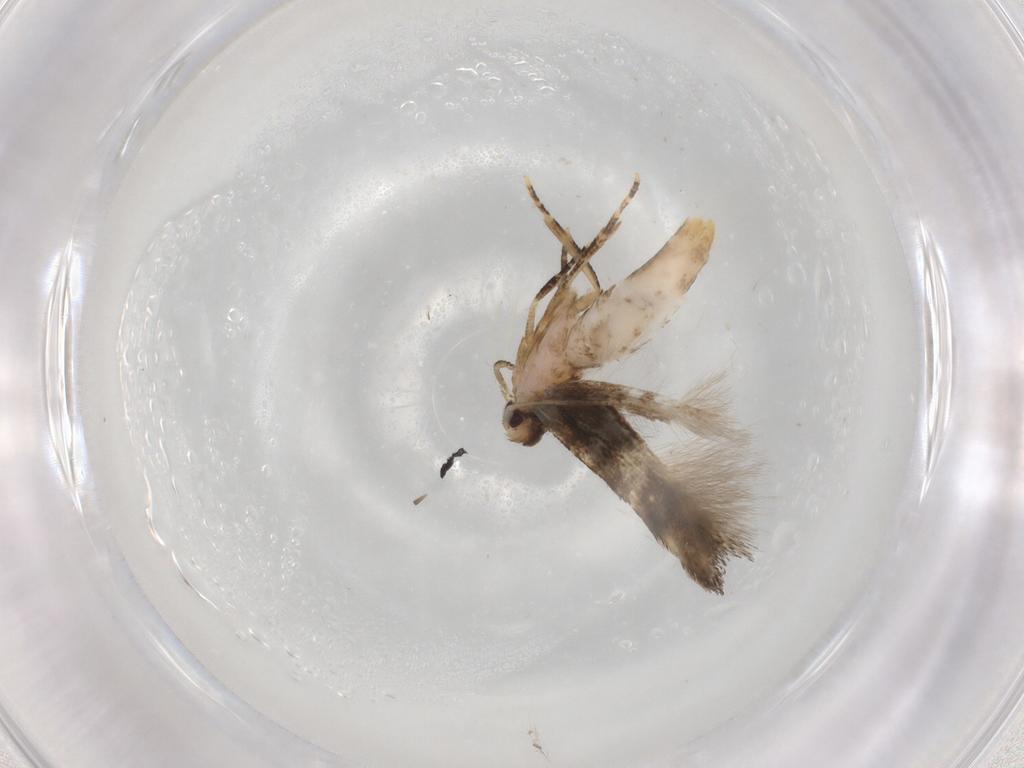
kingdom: Animalia
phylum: Arthropoda
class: Insecta
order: Lepidoptera
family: Cosmopterigidae
